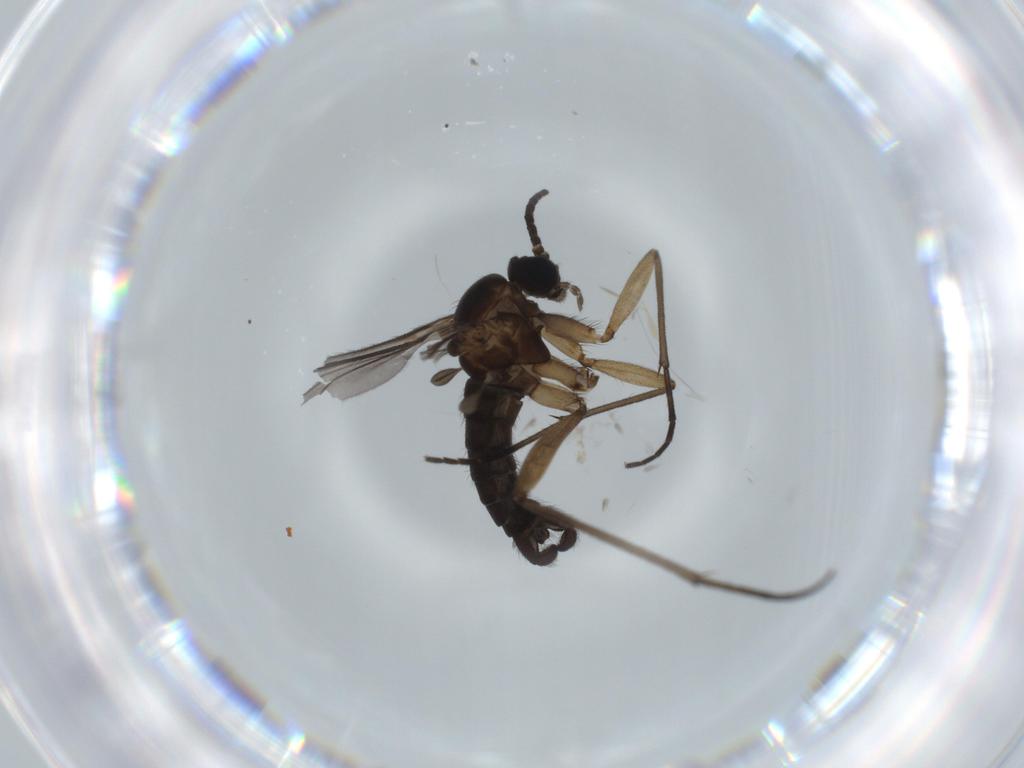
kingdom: Animalia
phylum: Arthropoda
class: Insecta
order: Diptera
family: Sciaridae
